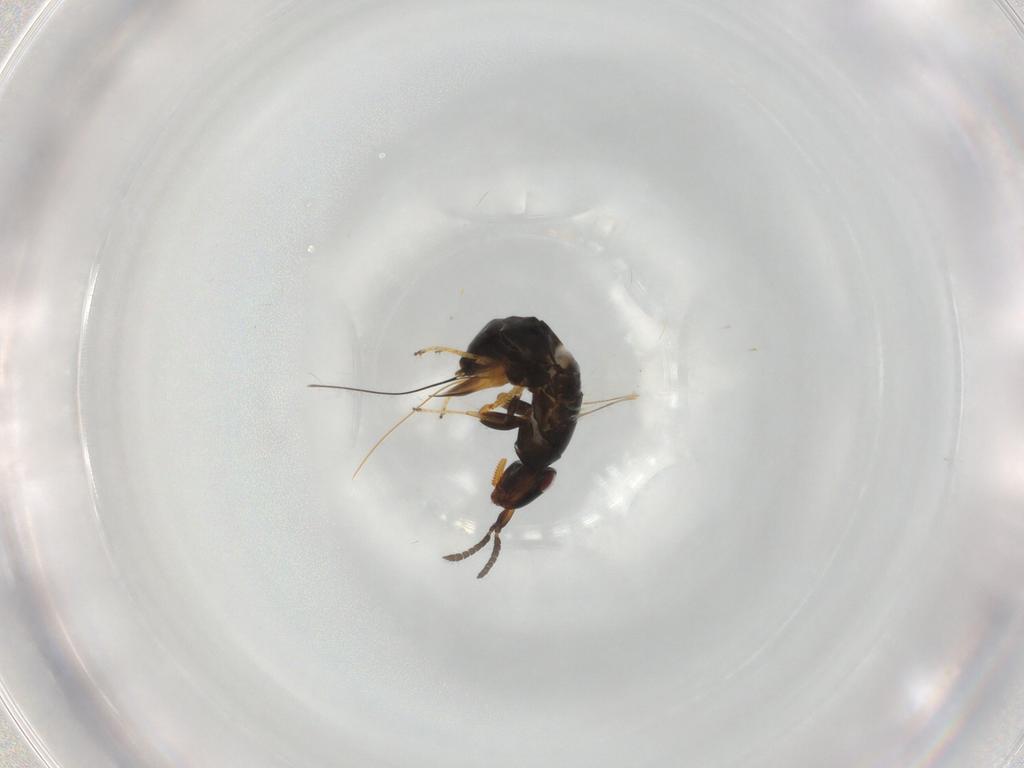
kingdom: Animalia
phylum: Arthropoda
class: Insecta
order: Hymenoptera
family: Agaonidae
